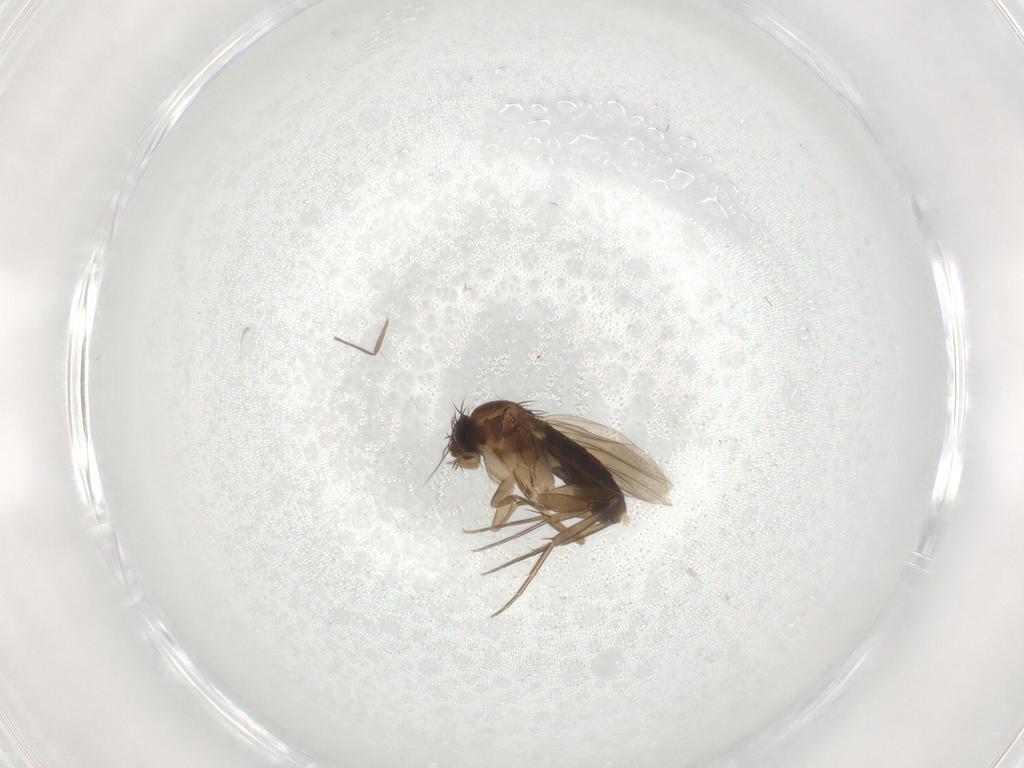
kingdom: Animalia
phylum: Arthropoda
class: Insecta
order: Diptera
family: Phoridae
